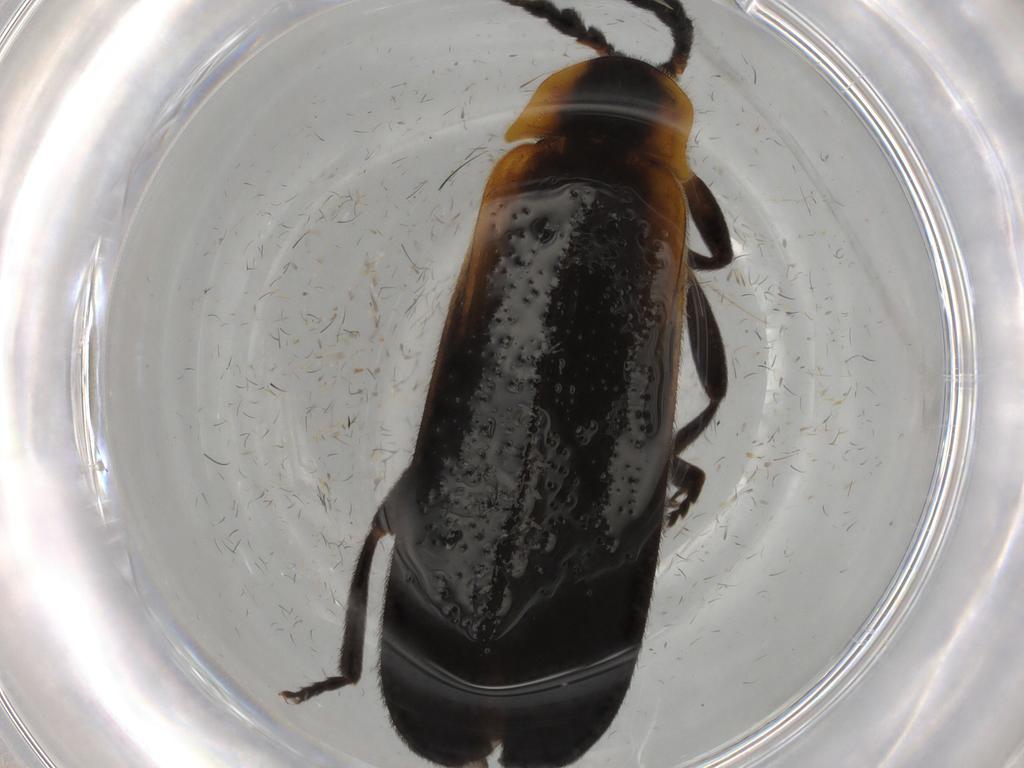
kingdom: Animalia
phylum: Arthropoda
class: Insecta
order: Coleoptera
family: Lycidae
